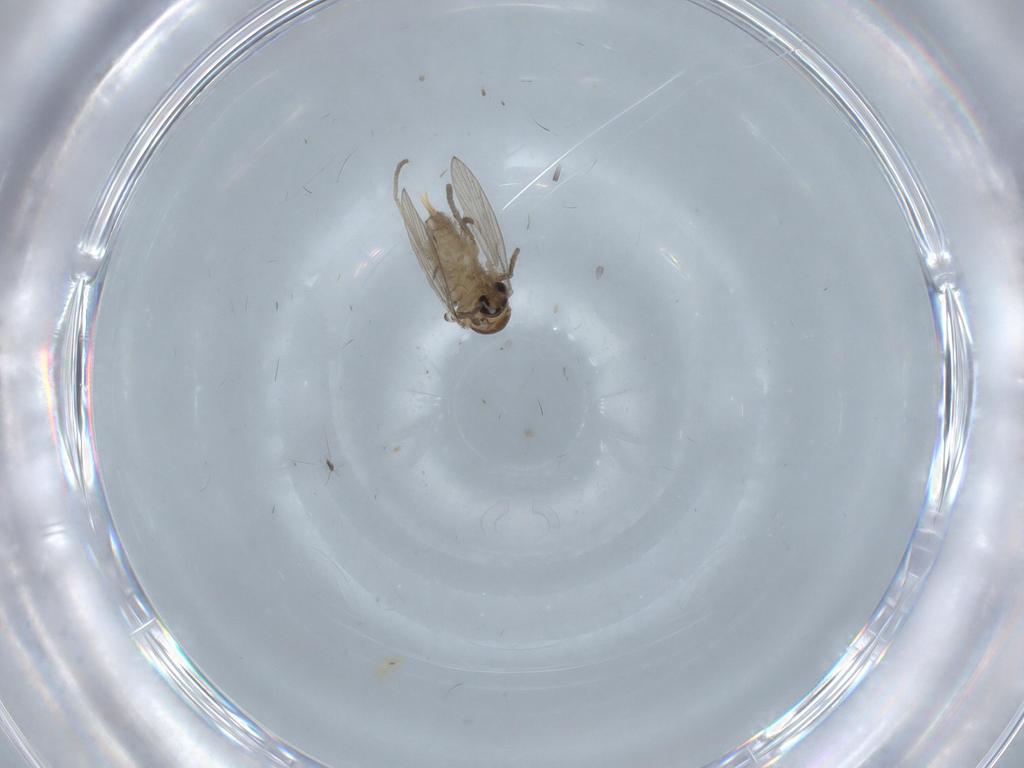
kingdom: Animalia
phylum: Arthropoda
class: Insecta
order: Diptera
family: Psychodidae
